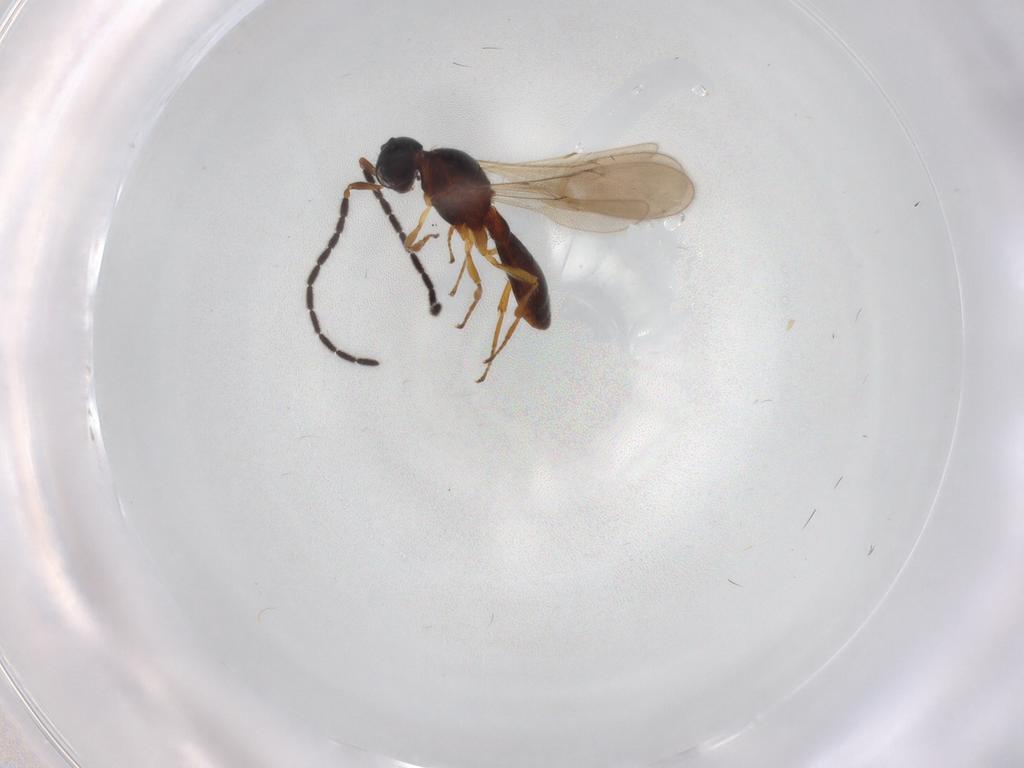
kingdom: Animalia
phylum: Arthropoda
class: Insecta
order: Hymenoptera
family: Scelionidae
